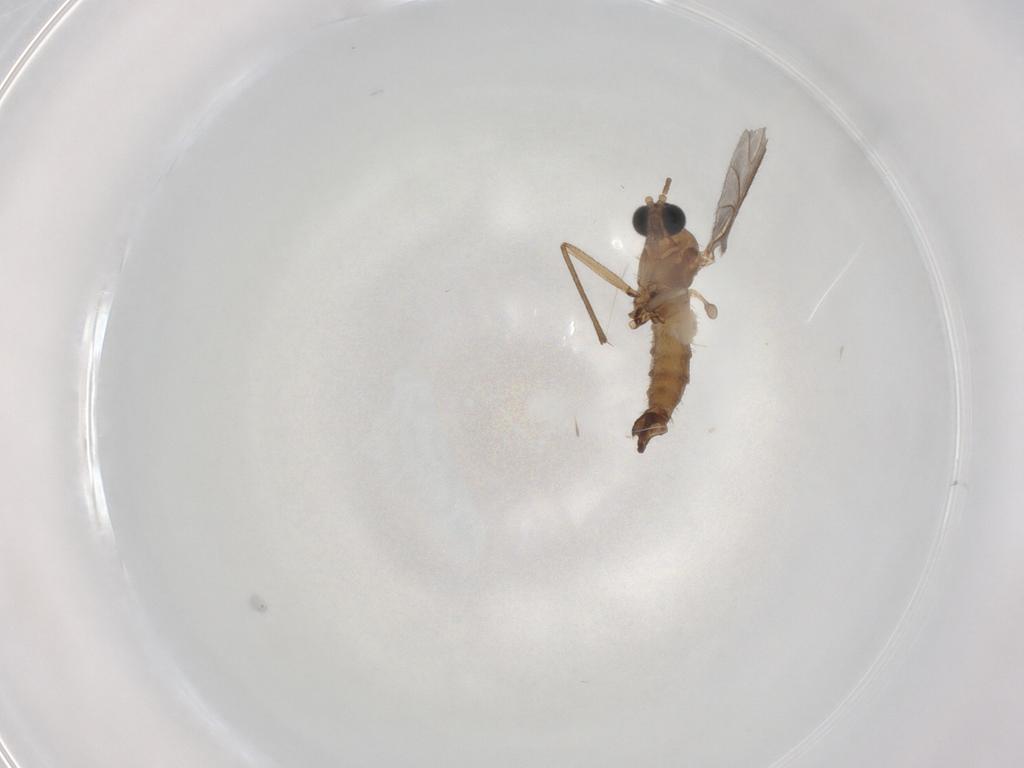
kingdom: Animalia
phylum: Arthropoda
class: Insecta
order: Diptera
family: Sciaridae
